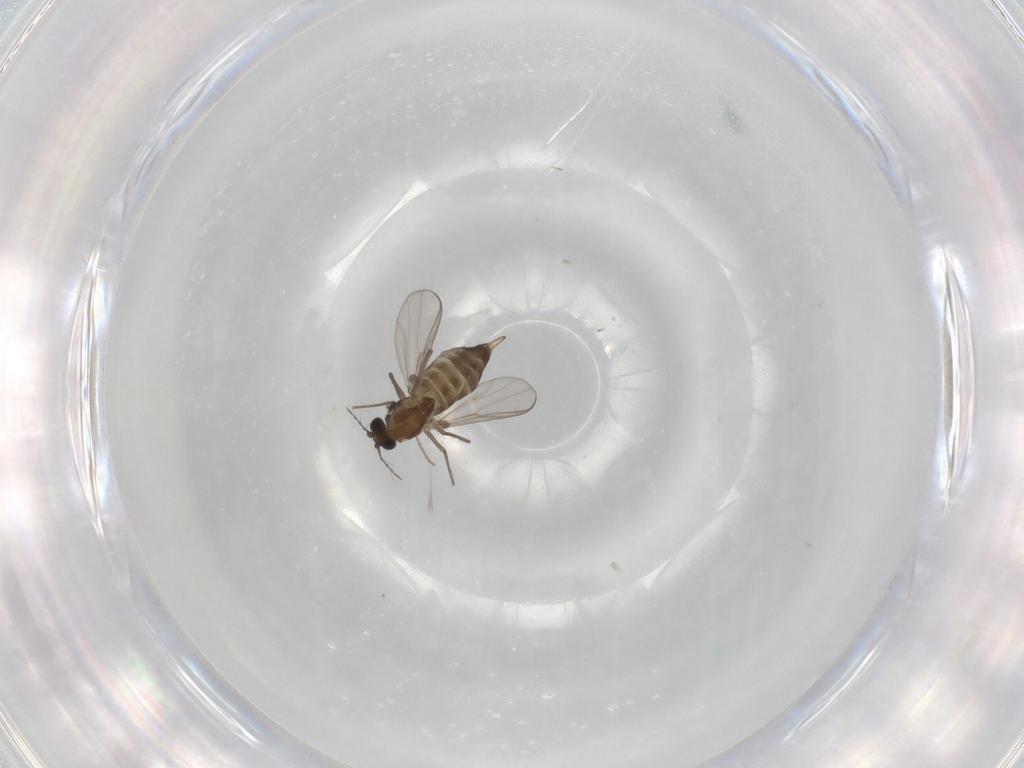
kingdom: Animalia
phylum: Arthropoda
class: Insecta
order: Diptera
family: Chironomidae
